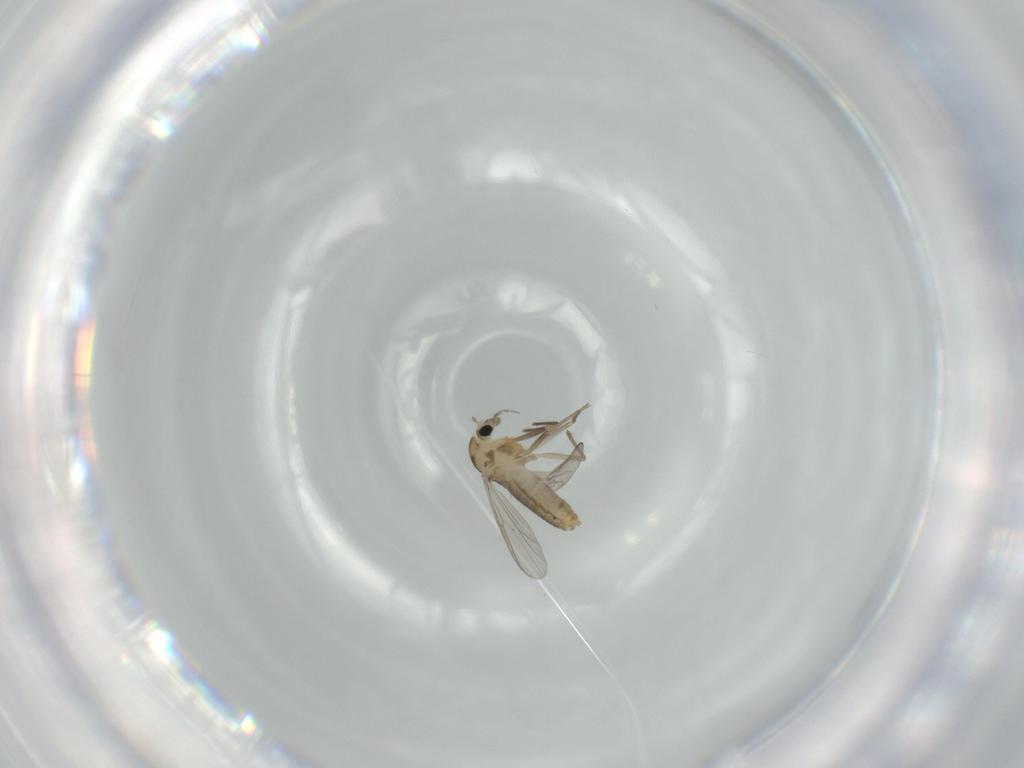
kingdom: Animalia
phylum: Arthropoda
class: Insecta
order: Diptera
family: Chironomidae
